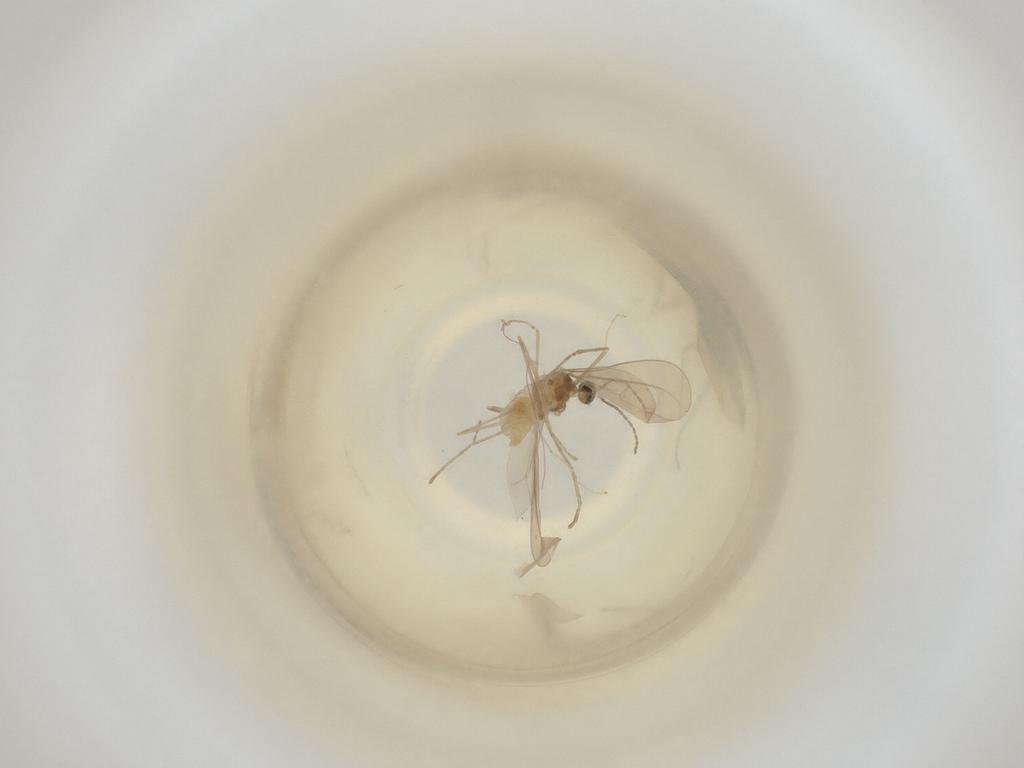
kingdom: Animalia
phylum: Arthropoda
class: Insecta
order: Diptera
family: Cecidomyiidae
